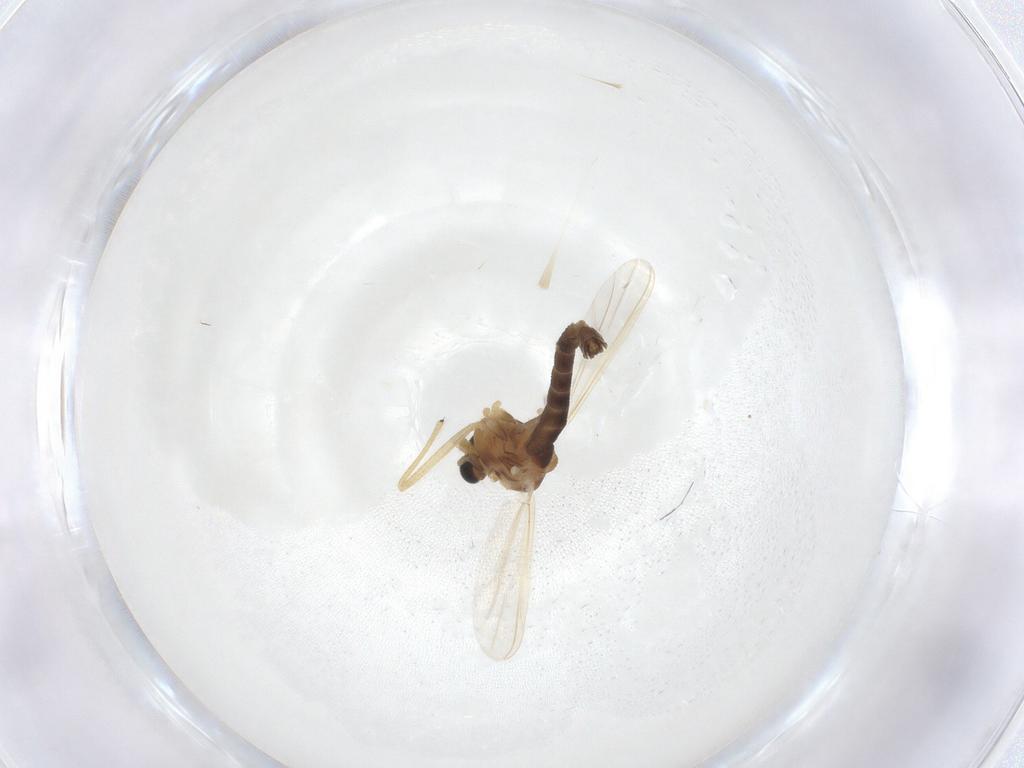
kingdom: Animalia
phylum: Arthropoda
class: Insecta
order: Diptera
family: Chironomidae
